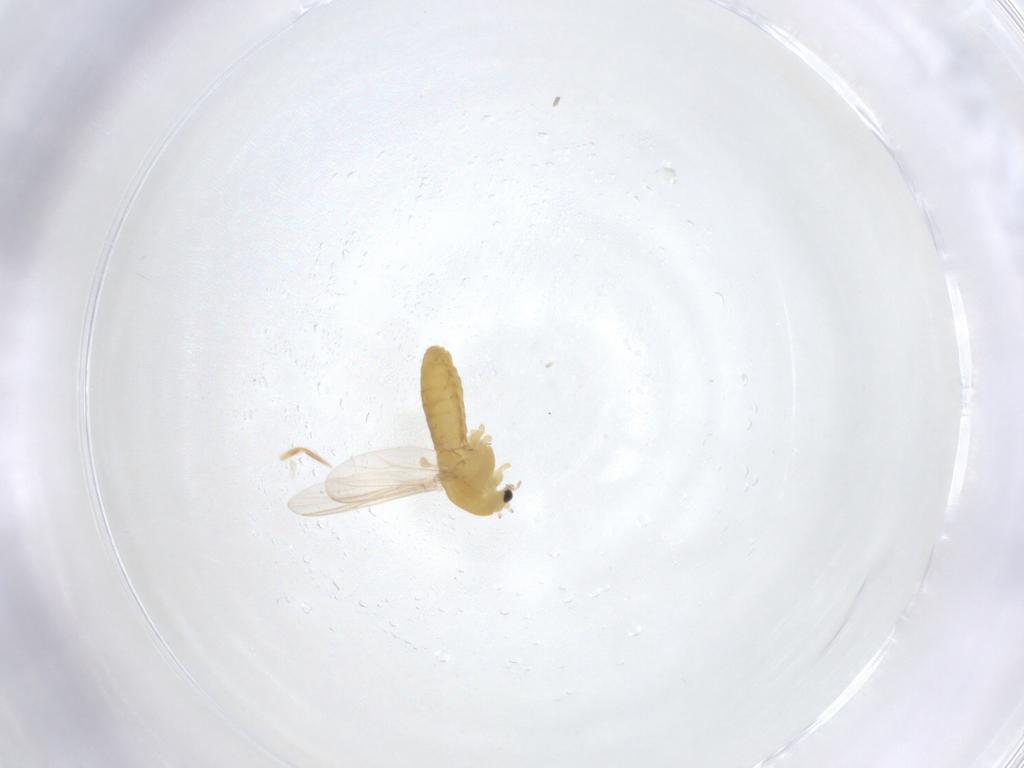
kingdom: Animalia
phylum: Arthropoda
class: Insecta
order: Diptera
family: Chironomidae
